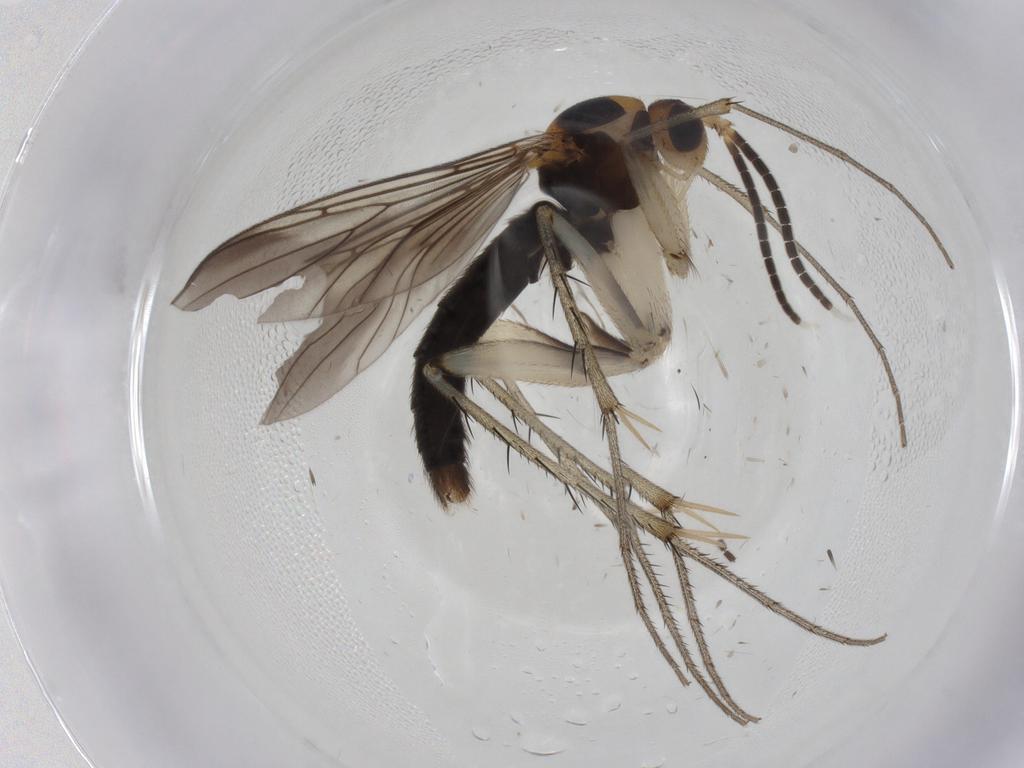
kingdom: Animalia
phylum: Arthropoda
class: Insecta
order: Diptera
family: Mycetophilidae
